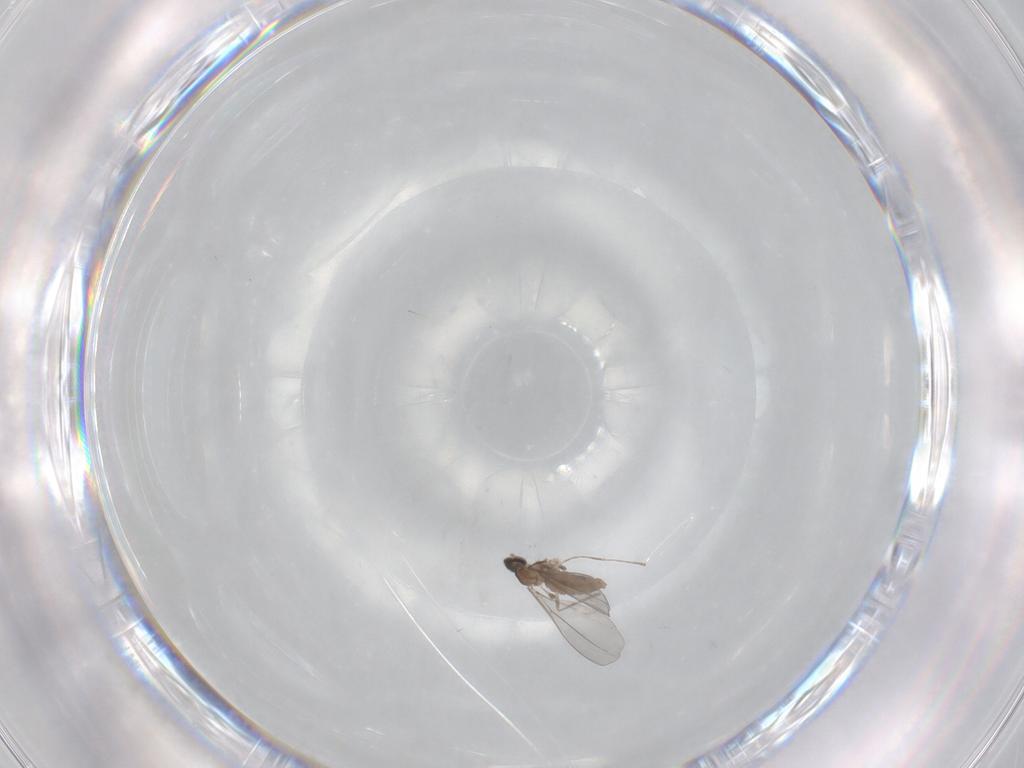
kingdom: Animalia
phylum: Arthropoda
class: Insecta
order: Diptera
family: Cecidomyiidae
